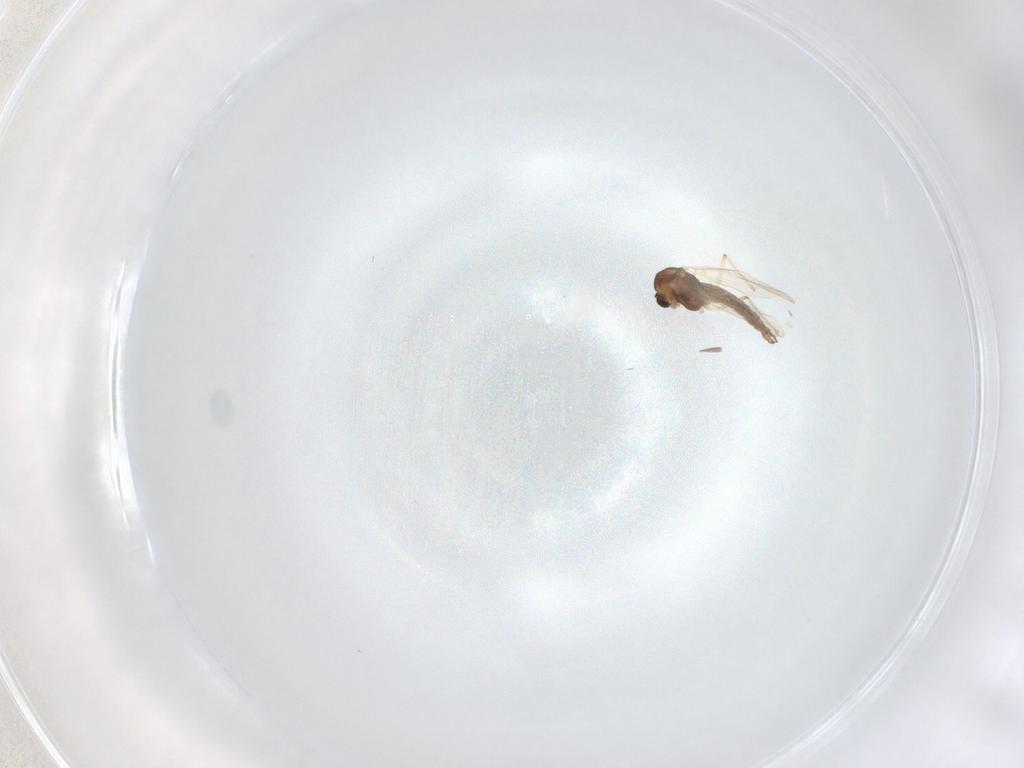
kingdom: Animalia
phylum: Arthropoda
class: Insecta
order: Diptera
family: Chironomidae
